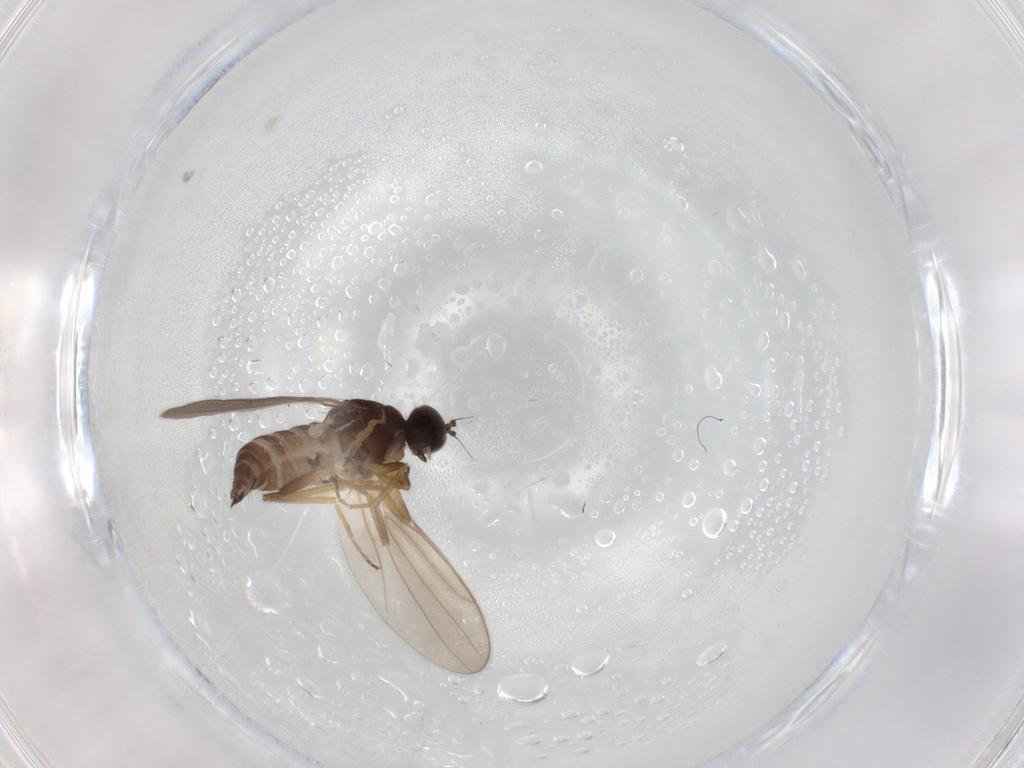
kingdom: Animalia
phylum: Arthropoda
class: Insecta
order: Diptera
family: Hybotidae
